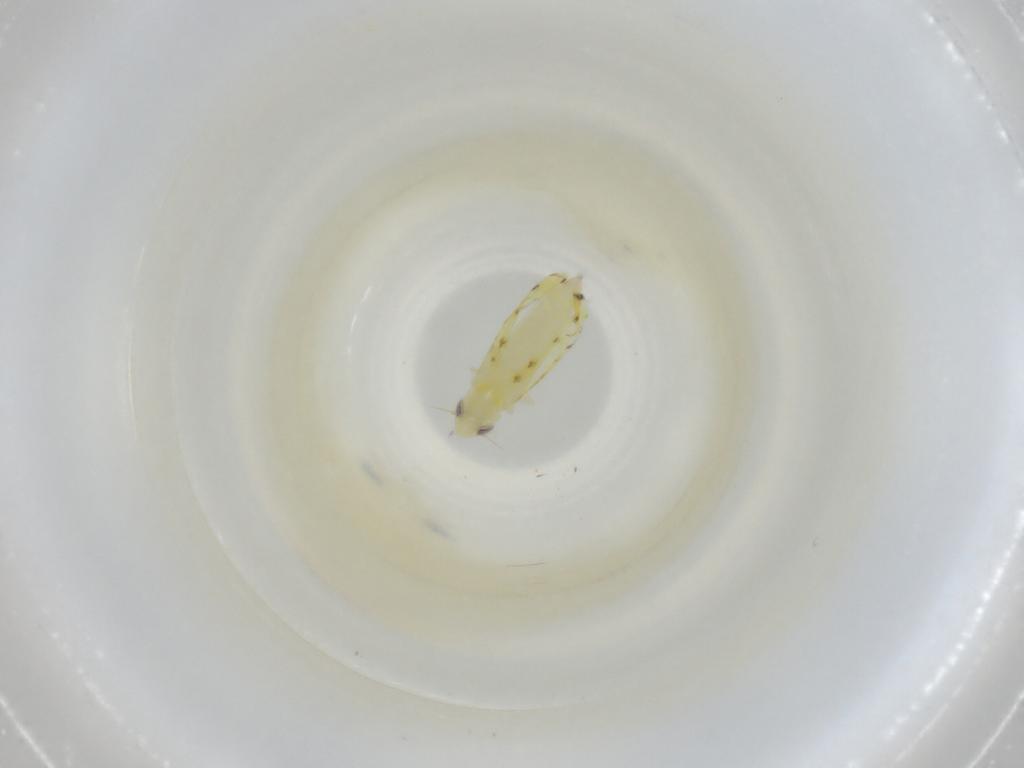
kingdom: Animalia
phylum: Arthropoda
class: Insecta
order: Hemiptera
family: Cicadellidae
